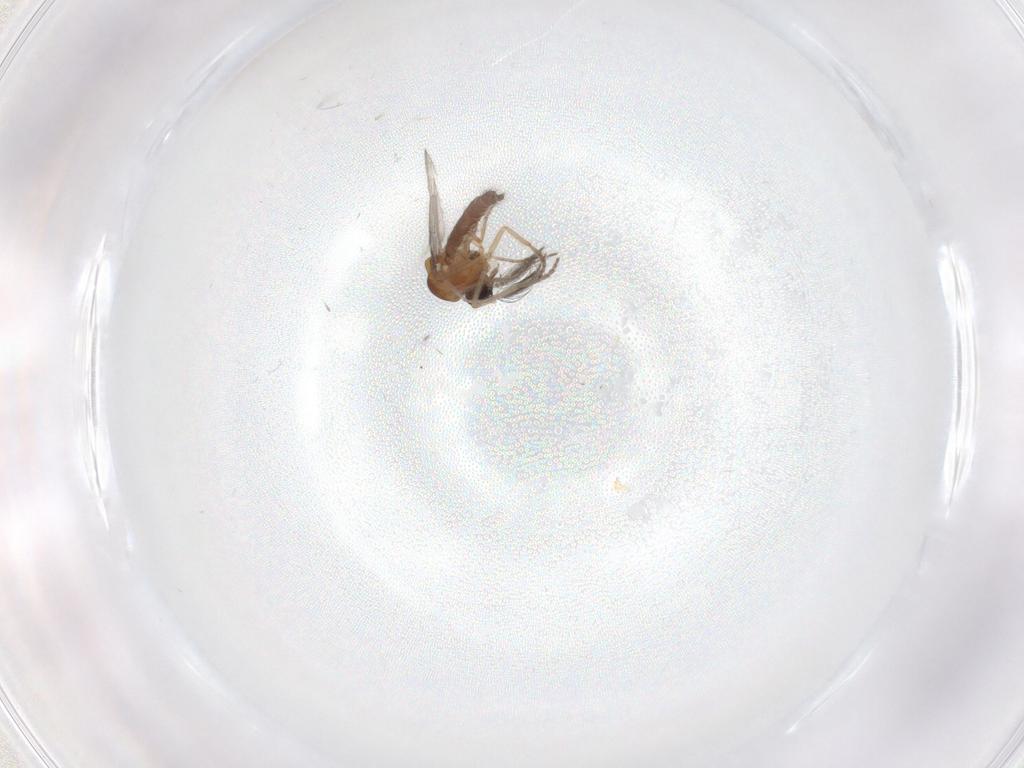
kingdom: Animalia
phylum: Arthropoda
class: Insecta
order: Diptera
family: Ceratopogonidae
